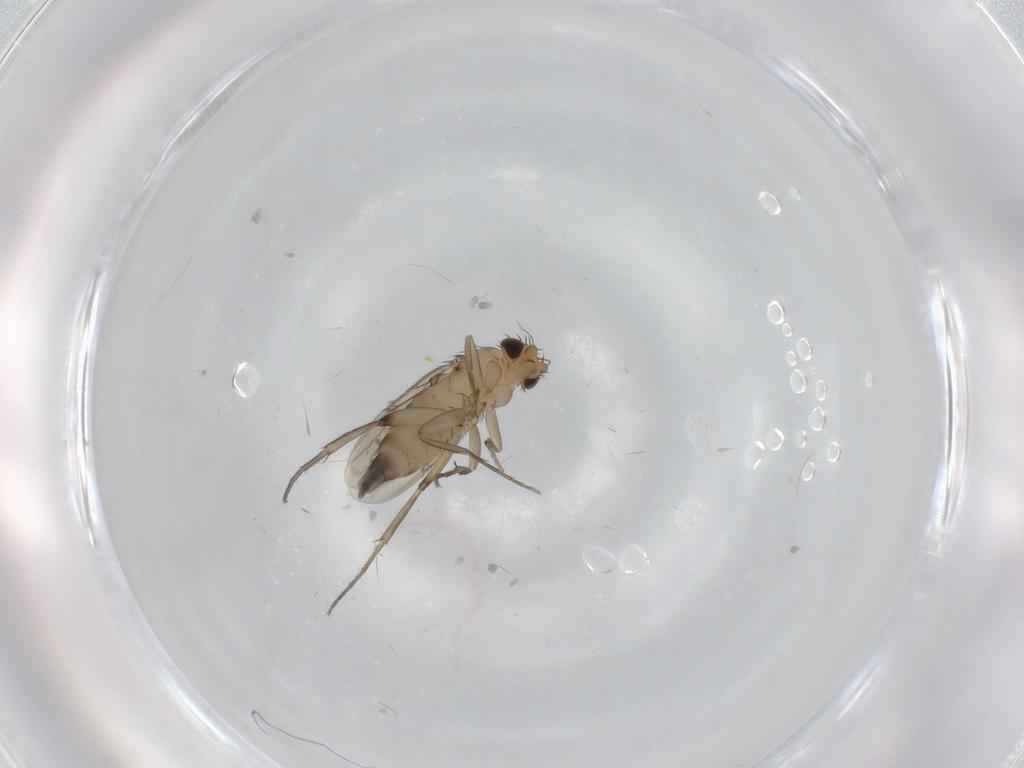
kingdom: Animalia
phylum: Arthropoda
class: Insecta
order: Diptera
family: Phoridae
